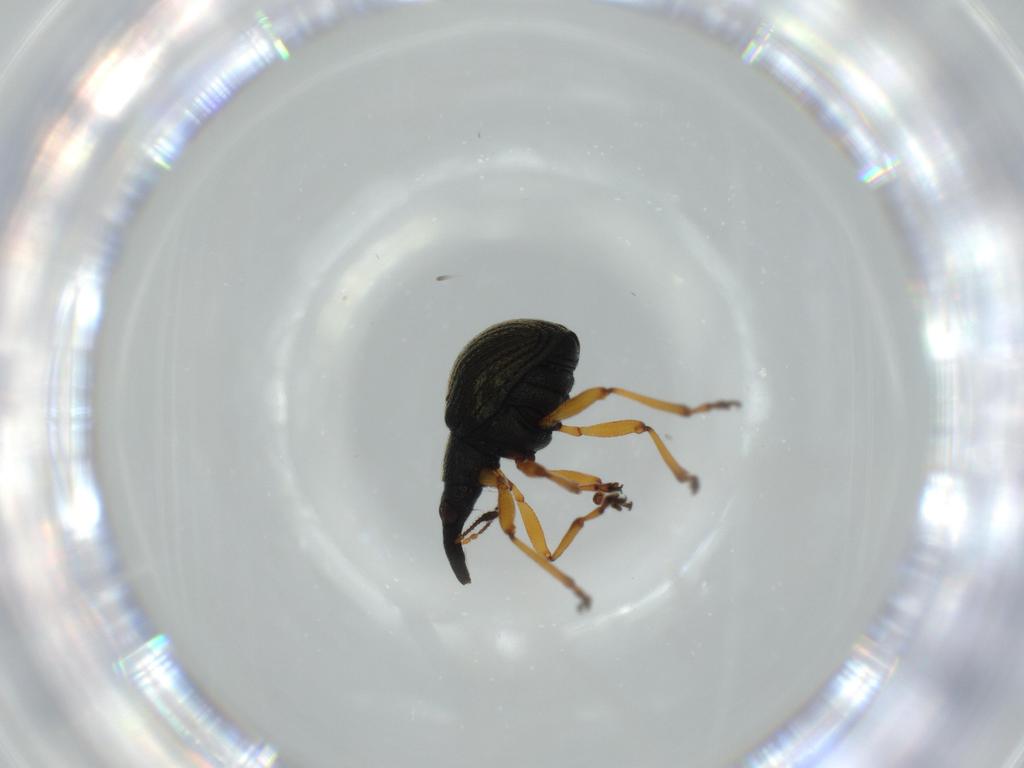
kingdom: Animalia
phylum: Arthropoda
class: Insecta
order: Coleoptera
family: Brentidae
